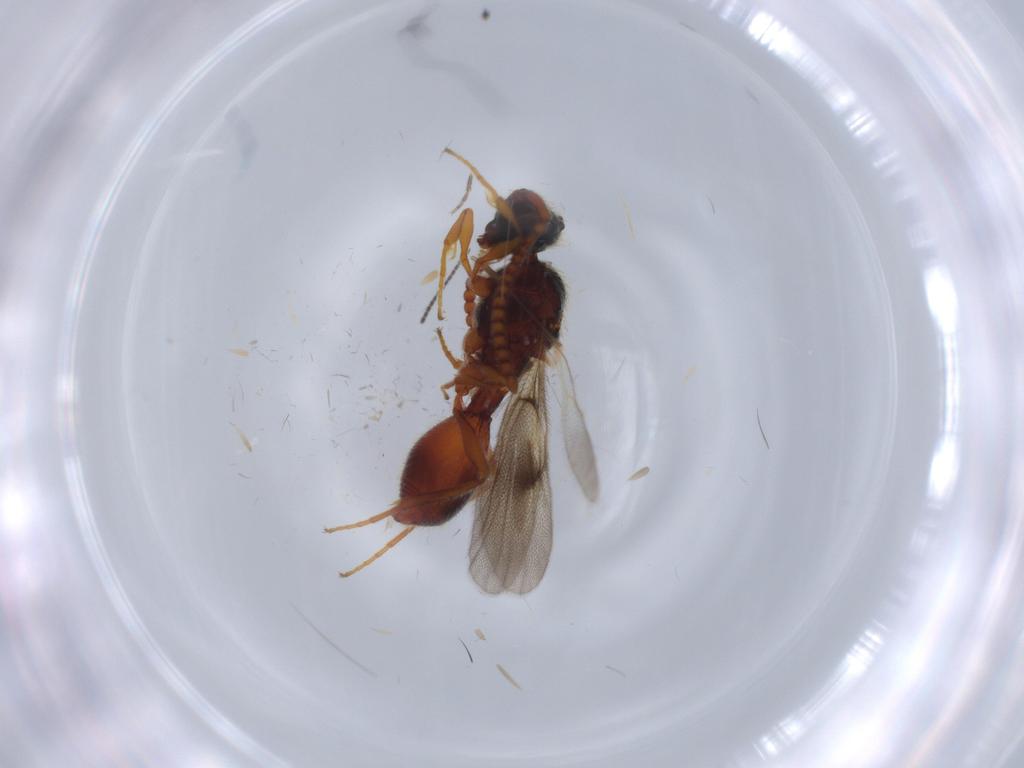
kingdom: Animalia
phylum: Arthropoda
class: Insecta
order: Hymenoptera
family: Diapriidae
